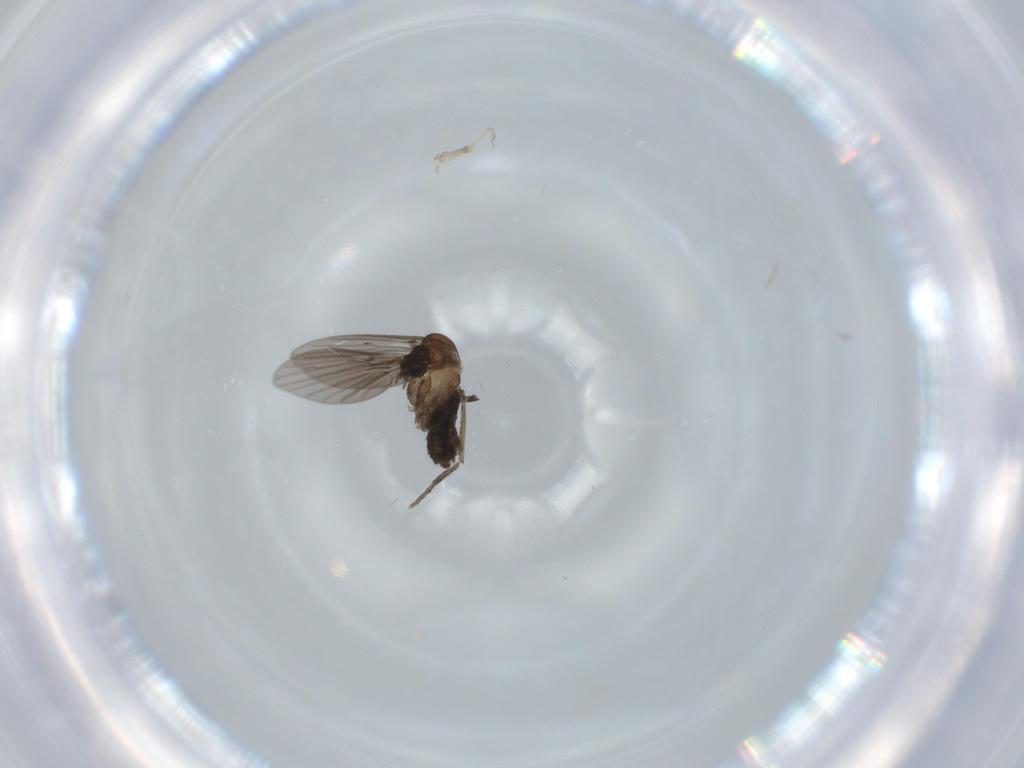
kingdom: Animalia
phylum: Arthropoda
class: Insecta
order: Diptera
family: Psychodidae
